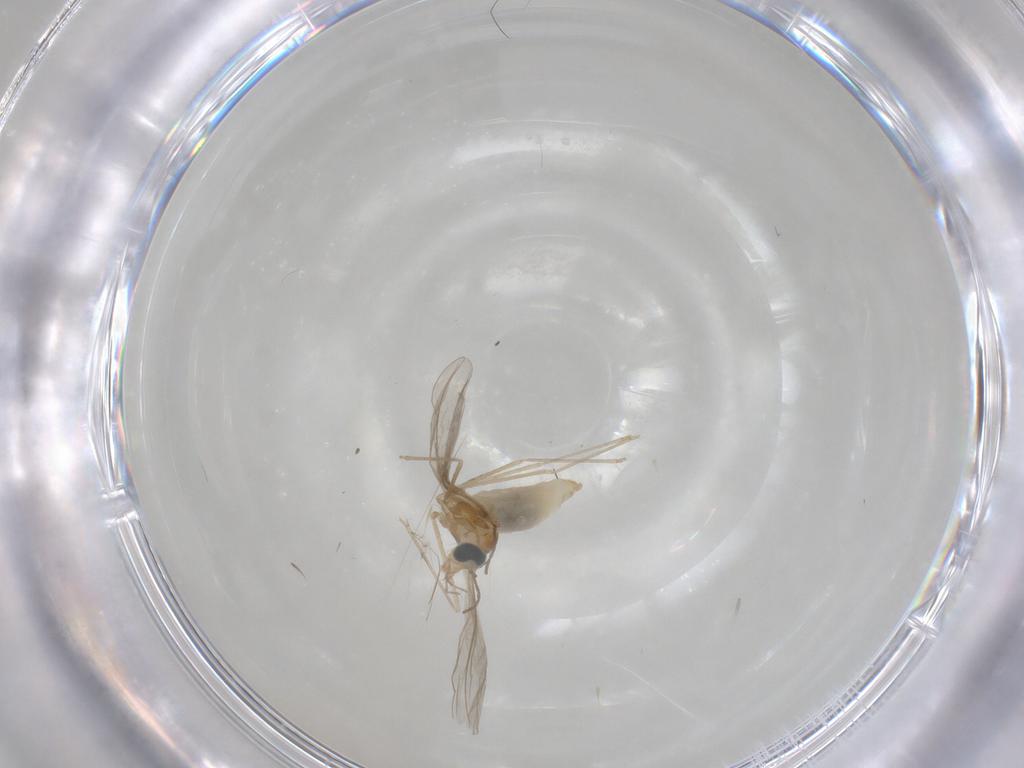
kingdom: Animalia
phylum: Arthropoda
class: Insecta
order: Diptera
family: Cecidomyiidae
